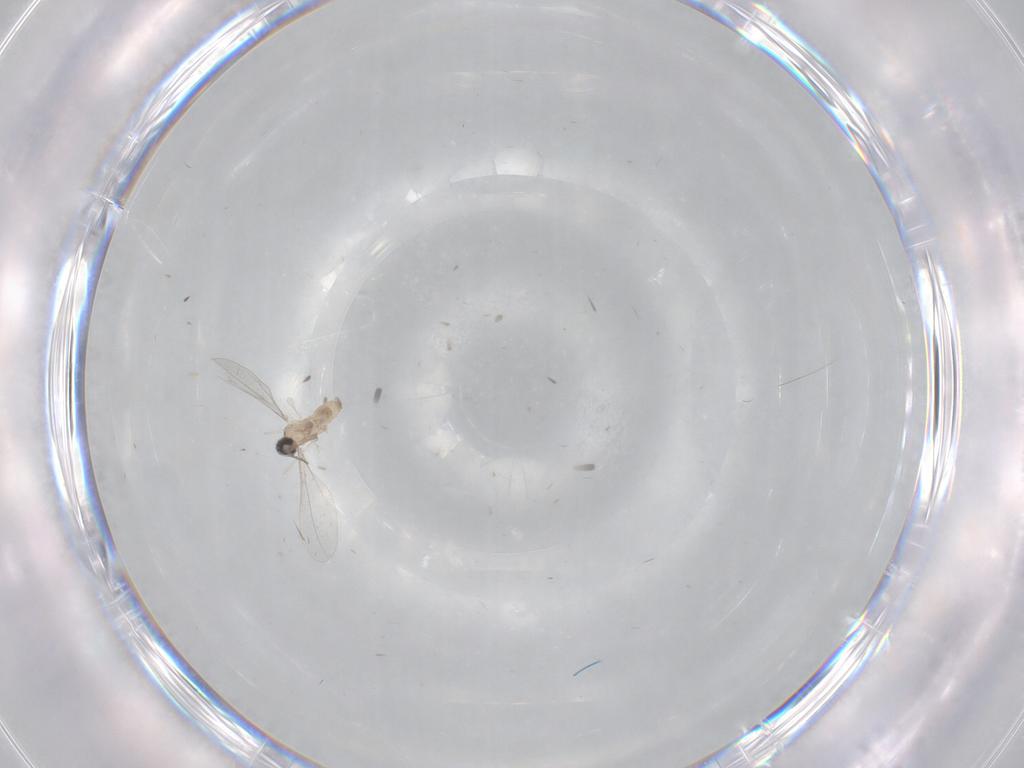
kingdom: Animalia
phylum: Arthropoda
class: Insecta
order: Diptera
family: Cecidomyiidae
